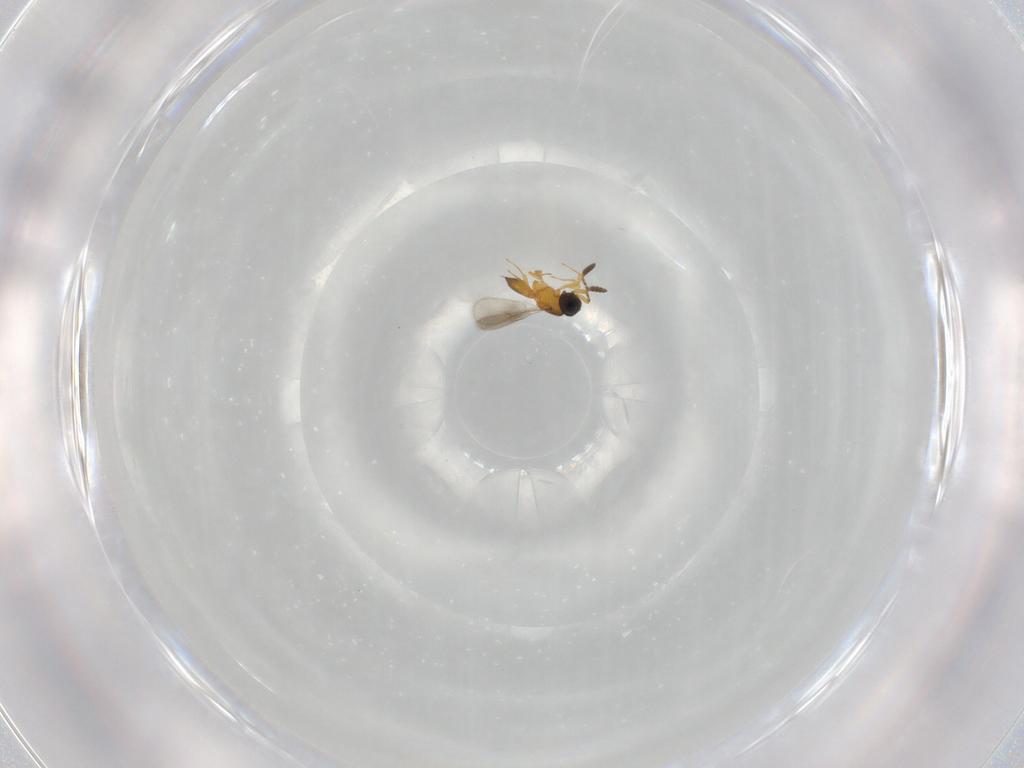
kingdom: Animalia
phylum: Arthropoda
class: Insecta
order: Hymenoptera
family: Scelionidae
